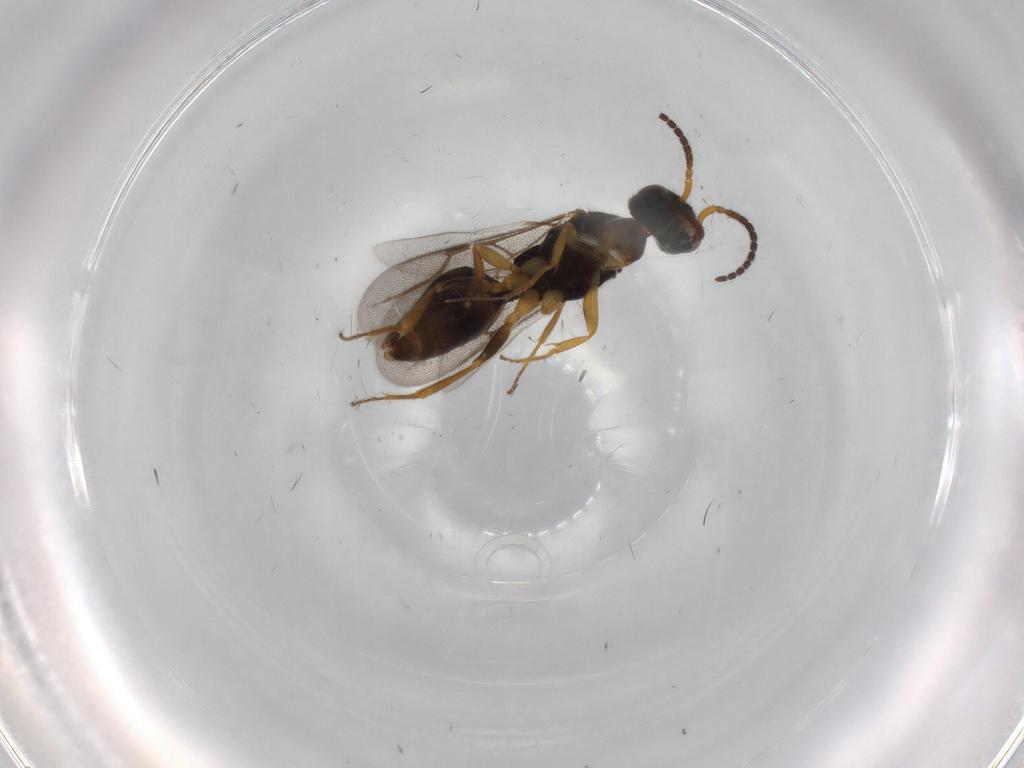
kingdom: Animalia
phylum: Arthropoda
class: Insecta
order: Hymenoptera
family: Bethylidae
